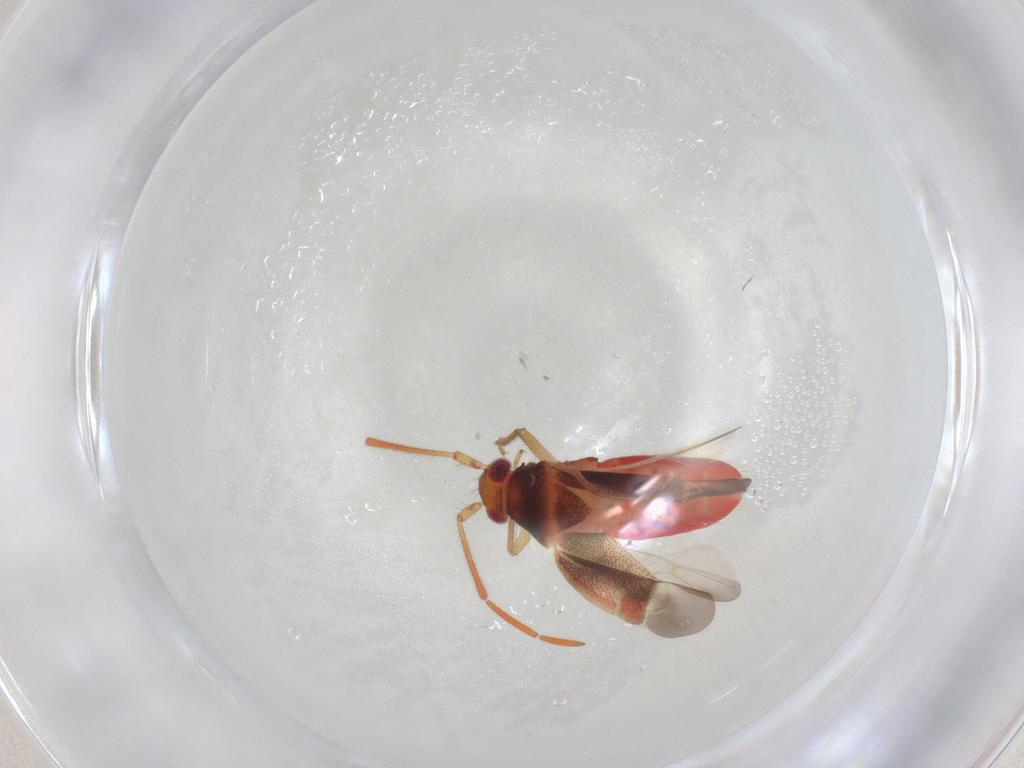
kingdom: Animalia
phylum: Arthropoda
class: Insecta
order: Hemiptera
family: Miridae
